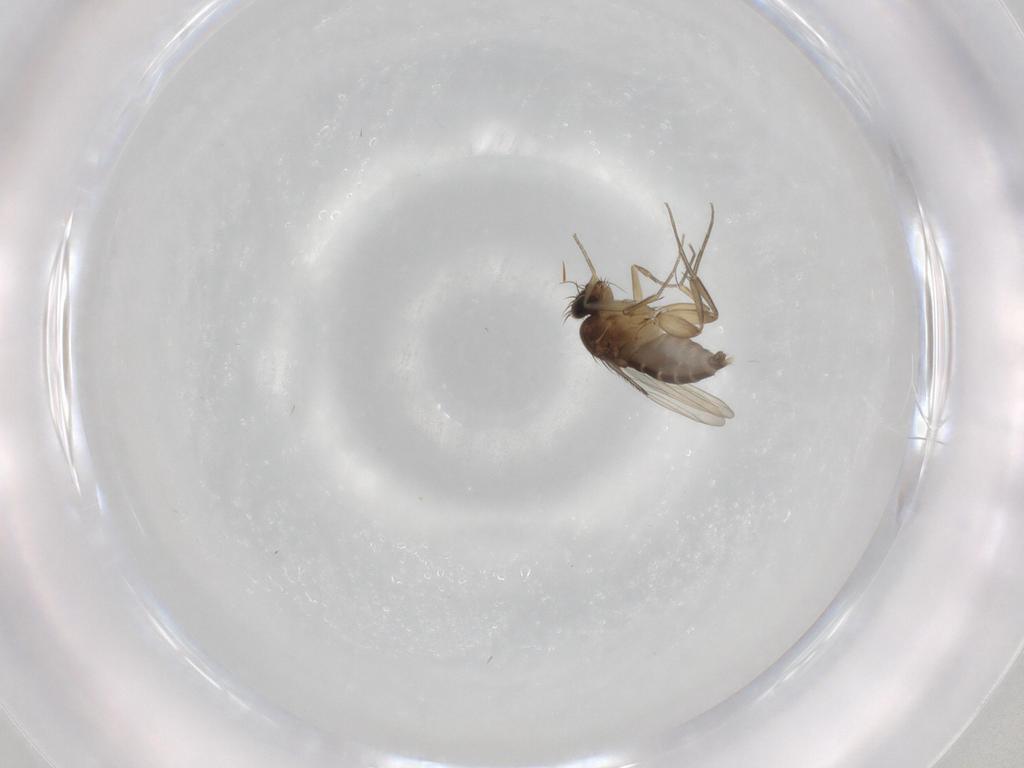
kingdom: Animalia
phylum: Arthropoda
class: Insecta
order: Diptera
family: Phoridae
